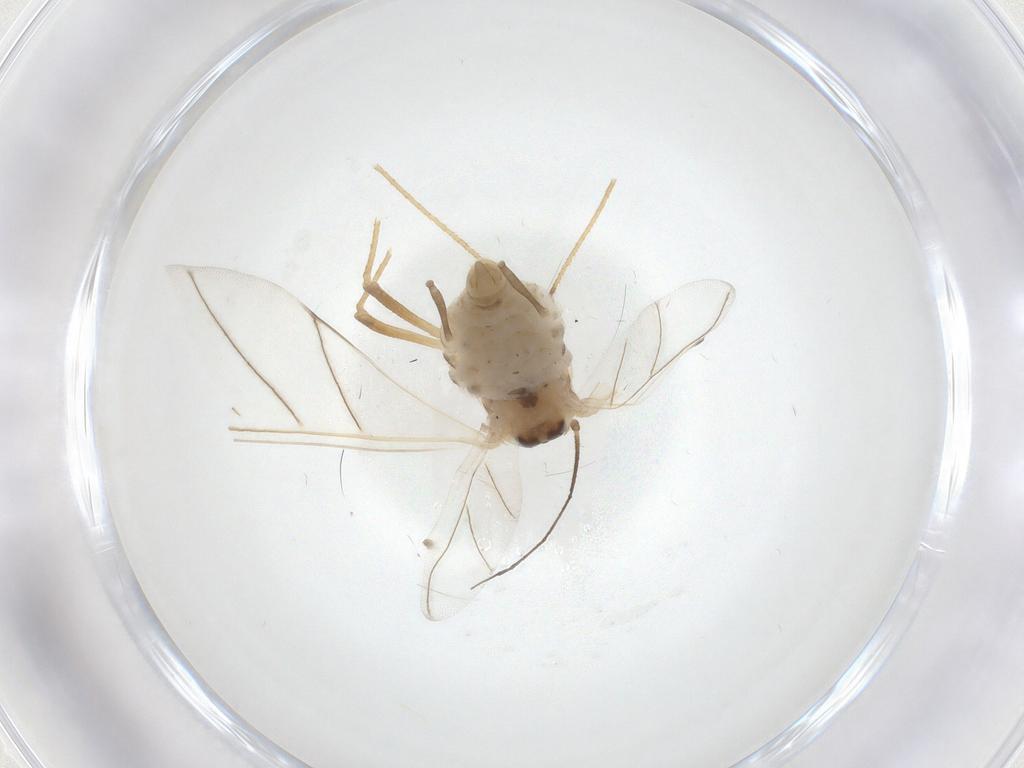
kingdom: Animalia
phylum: Arthropoda
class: Insecta
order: Hemiptera
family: Aphididae
